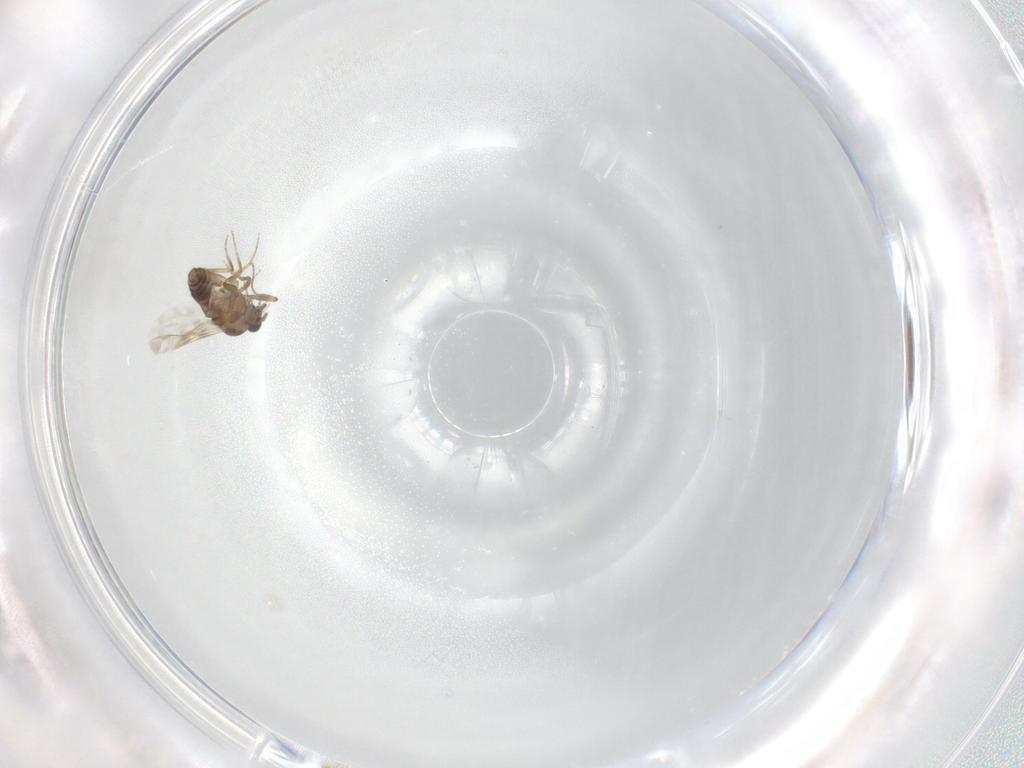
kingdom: Animalia
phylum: Arthropoda
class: Insecta
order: Diptera
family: Ceratopogonidae
